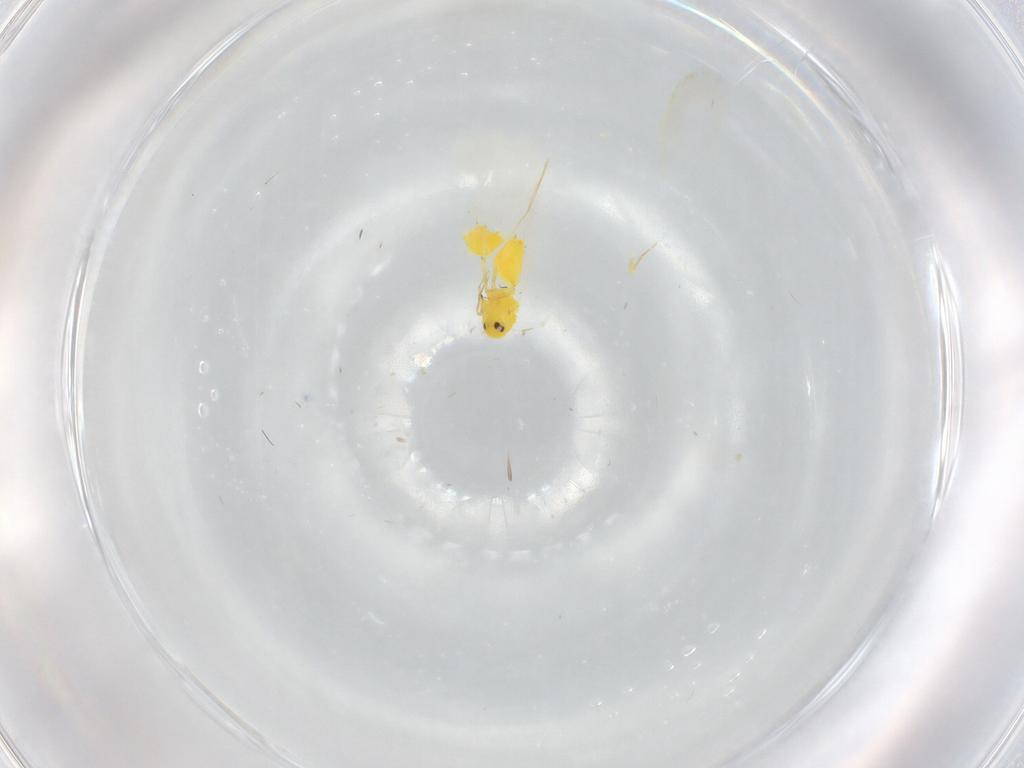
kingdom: Animalia
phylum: Arthropoda
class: Insecta
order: Hemiptera
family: Aleyrodidae
